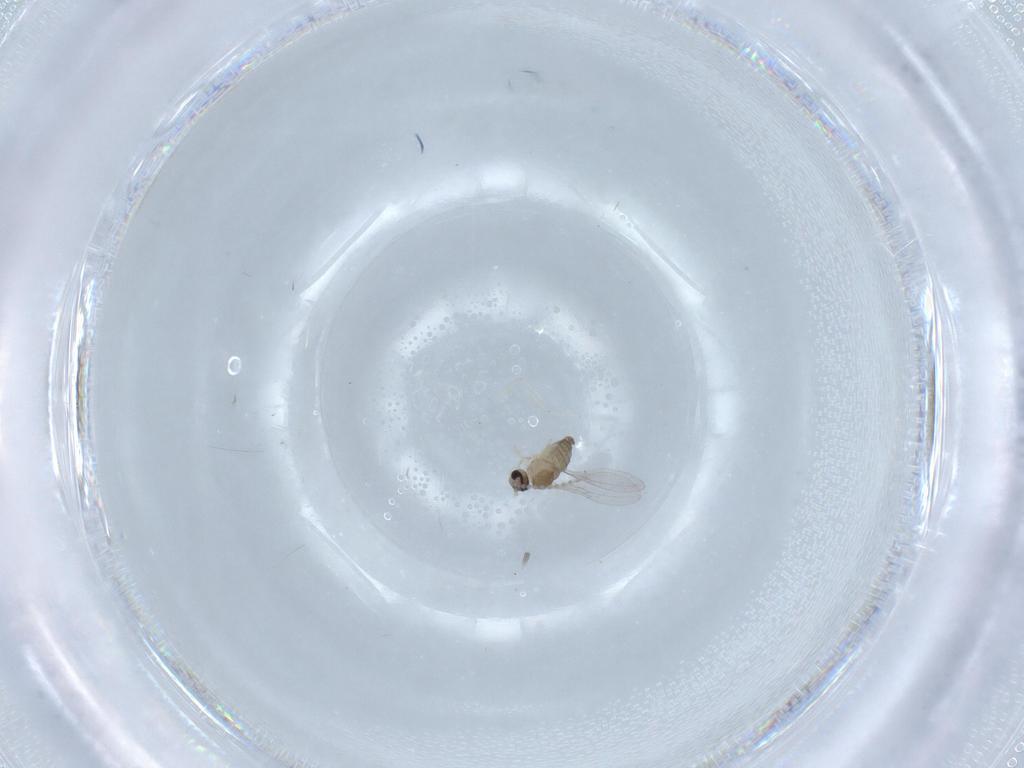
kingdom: Animalia
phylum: Arthropoda
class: Insecta
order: Diptera
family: Cecidomyiidae
